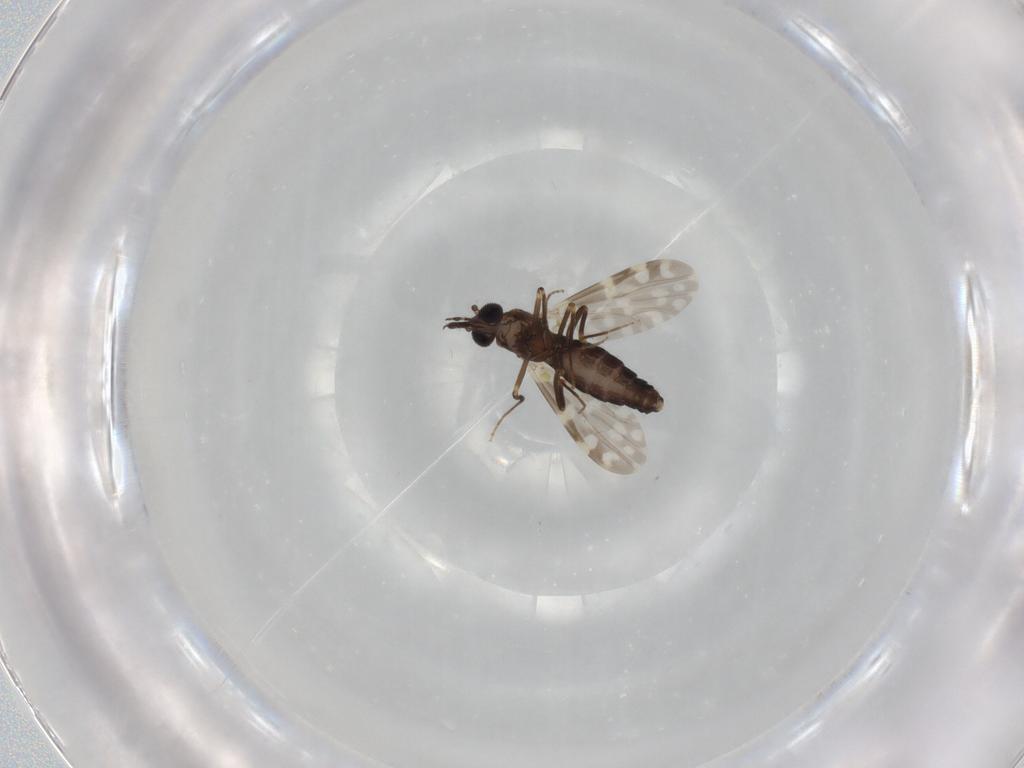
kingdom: Animalia
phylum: Arthropoda
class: Insecta
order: Diptera
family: Ceratopogonidae
